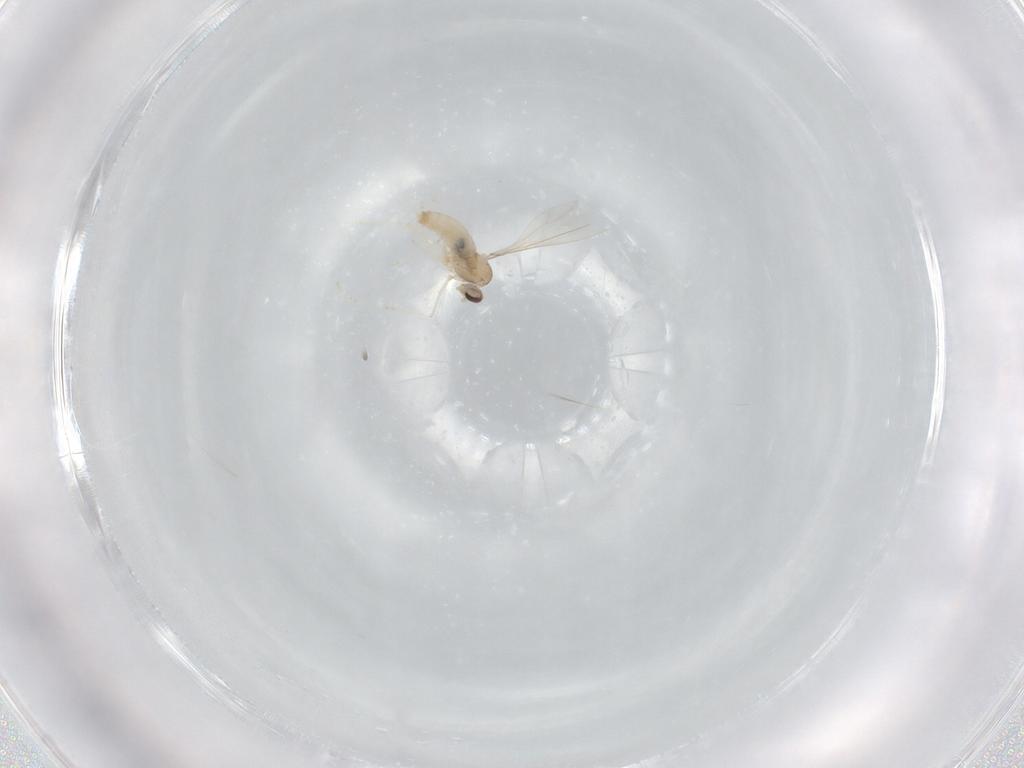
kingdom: Animalia
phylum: Arthropoda
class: Insecta
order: Diptera
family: Cecidomyiidae
